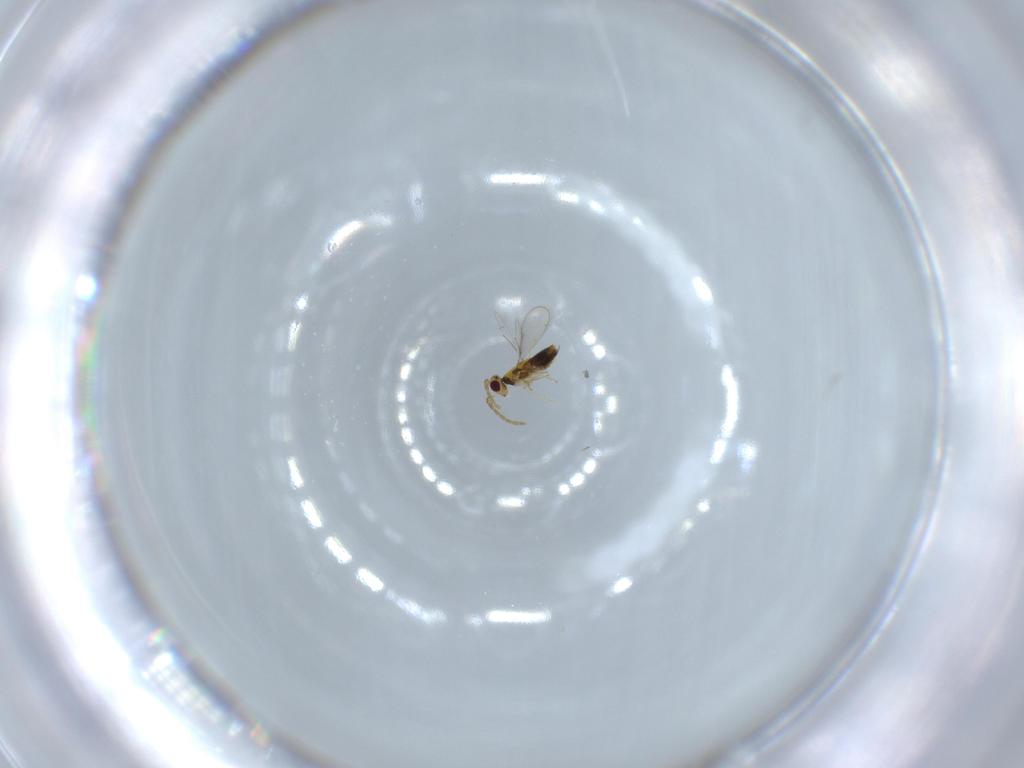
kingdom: Animalia
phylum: Arthropoda
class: Insecta
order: Hymenoptera
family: Aphelinidae
